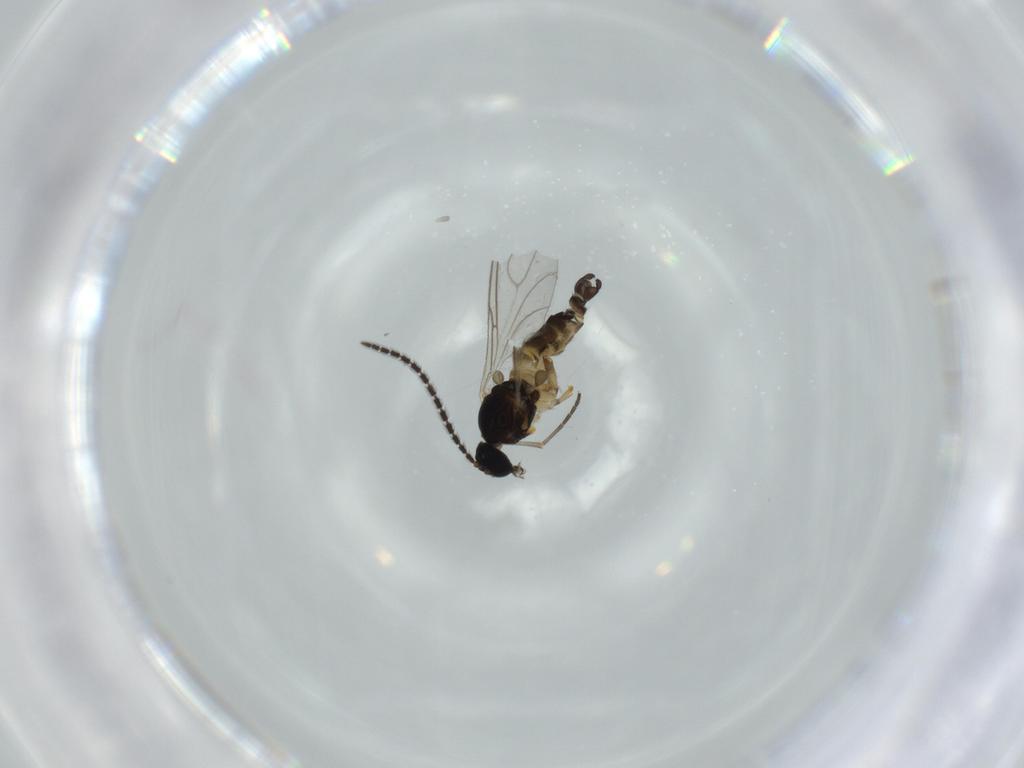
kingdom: Animalia
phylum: Arthropoda
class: Insecta
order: Diptera
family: Sciaridae
